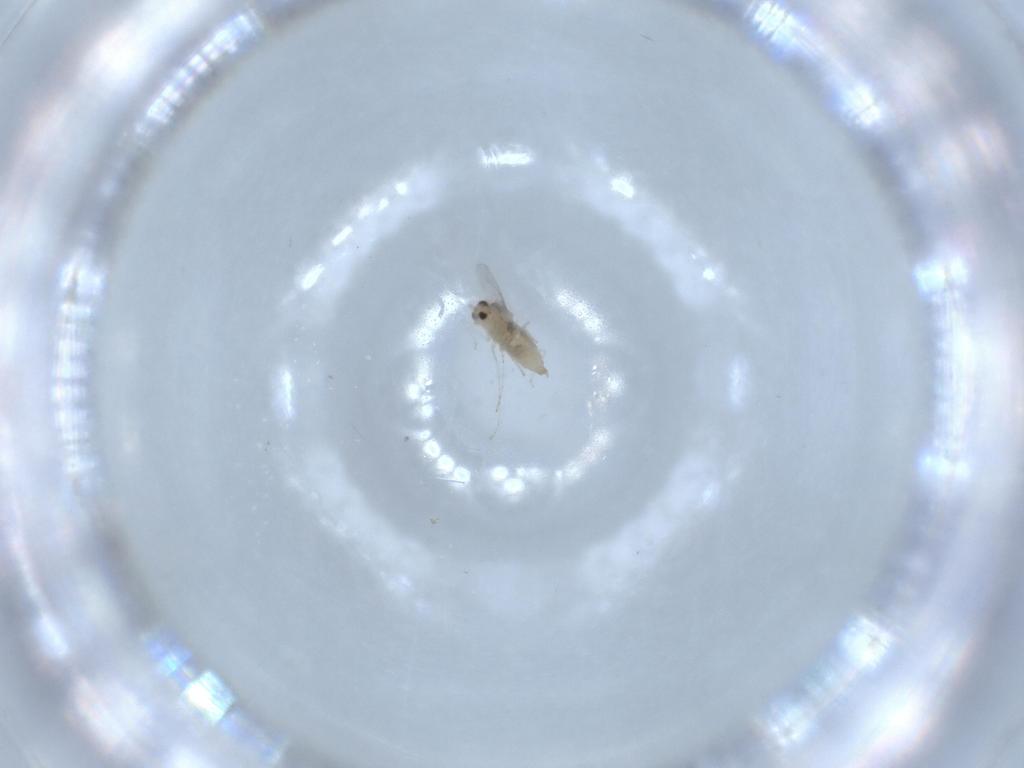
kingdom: Animalia
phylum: Arthropoda
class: Insecta
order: Diptera
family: Cecidomyiidae
